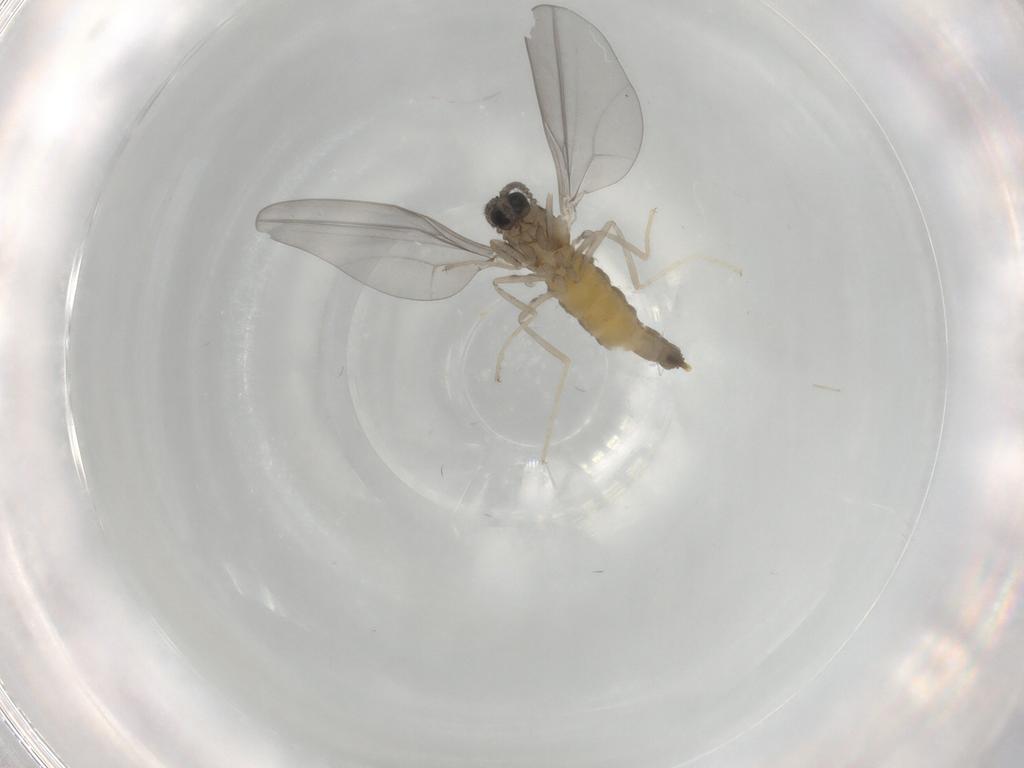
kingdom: Animalia
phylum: Arthropoda
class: Insecta
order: Diptera
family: Cecidomyiidae
